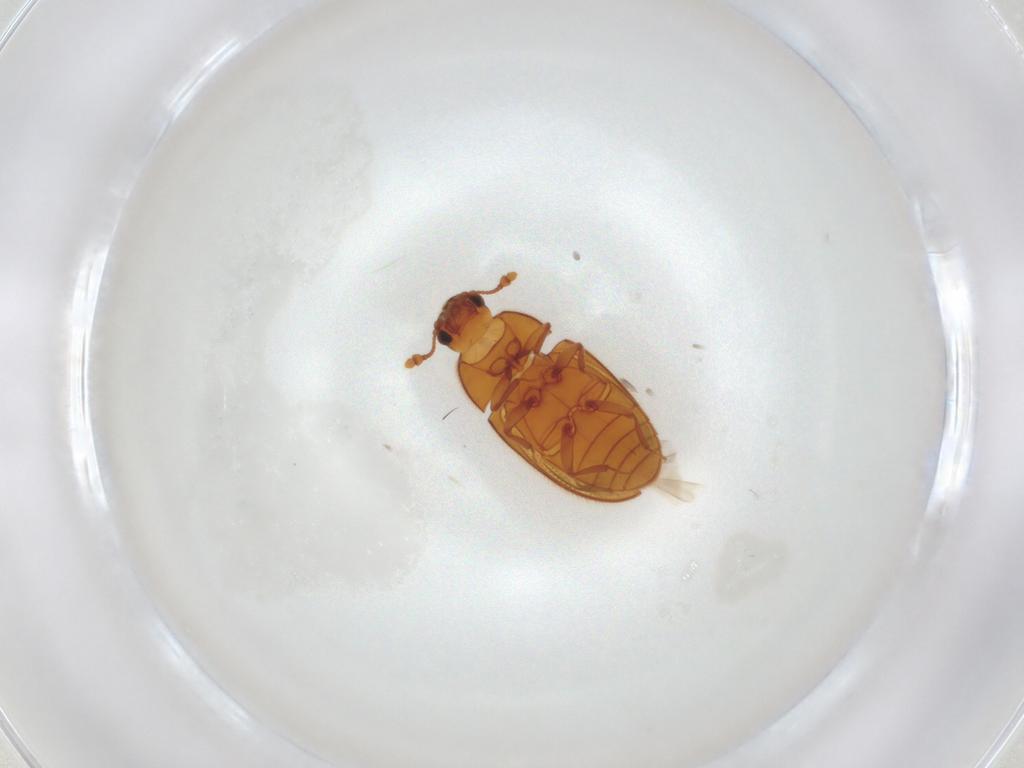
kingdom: Animalia
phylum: Arthropoda
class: Insecta
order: Coleoptera
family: Biphyllidae
